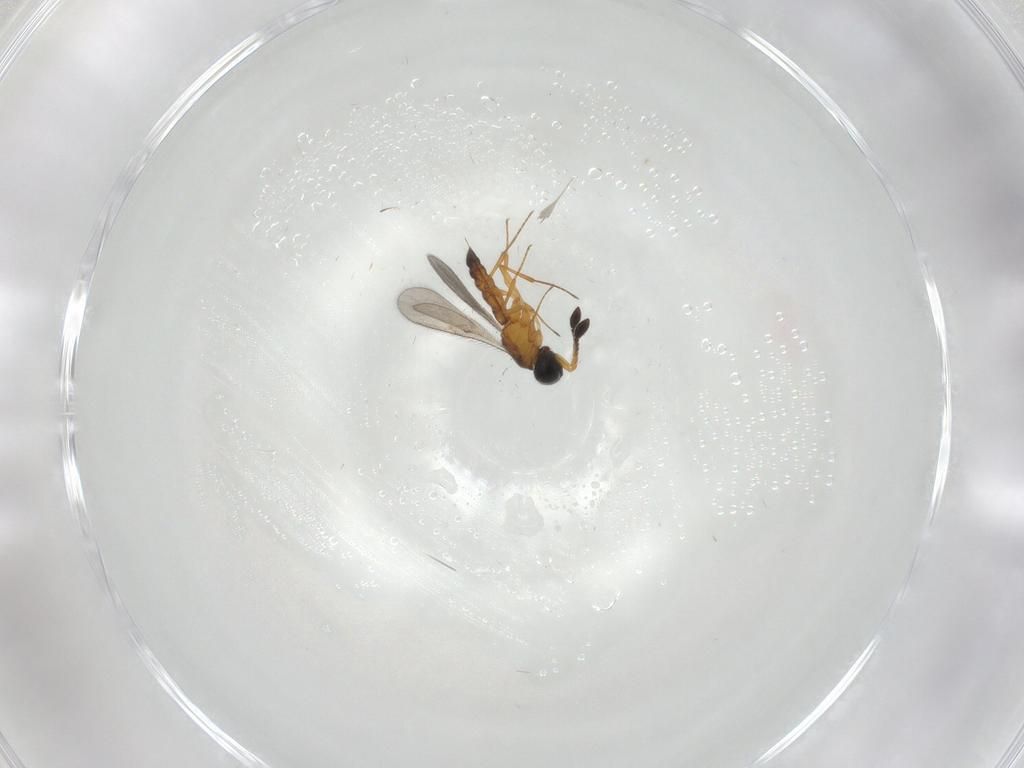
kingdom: Animalia
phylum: Arthropoda
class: Insecta
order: Hymenoptera
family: Scelionidae
